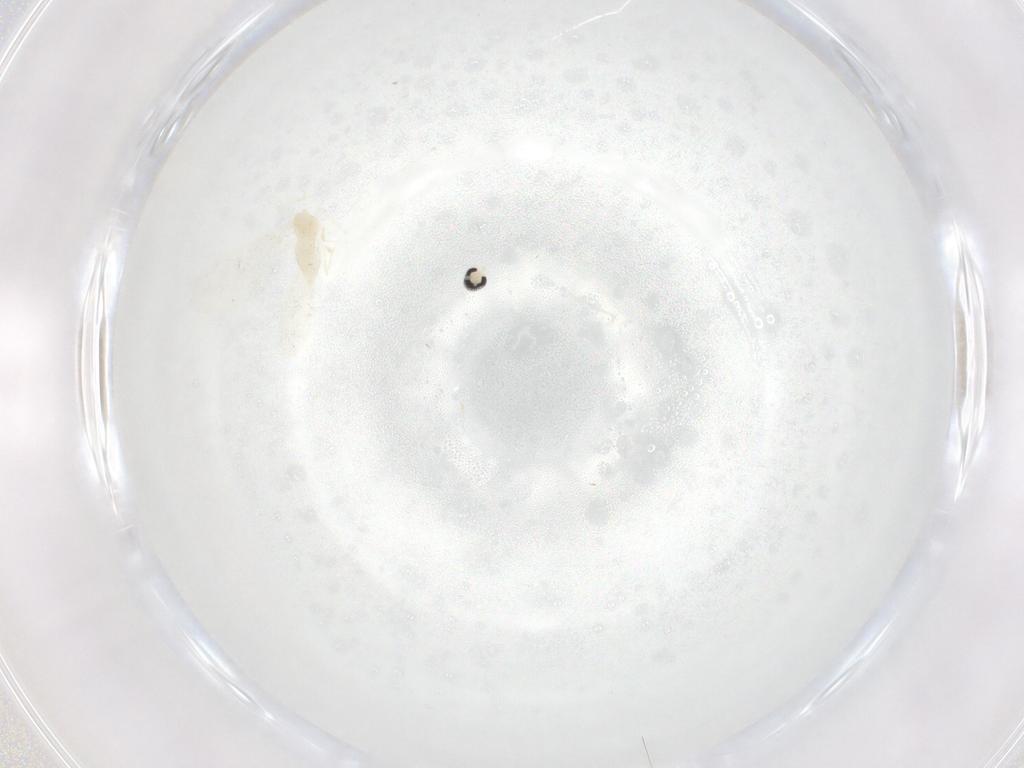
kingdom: Animalia
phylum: Arthropoda
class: Insecta
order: Diptera
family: Cecidomyiidae
